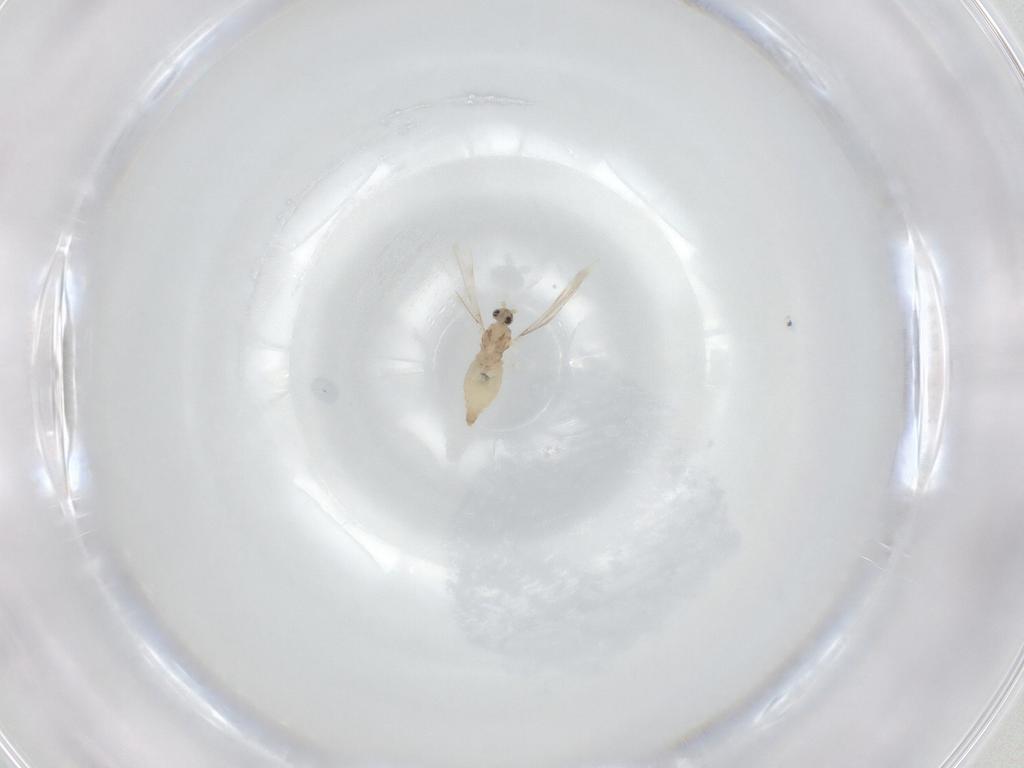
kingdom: Animalia
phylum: Arthropoda
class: Insecta
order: Diptera
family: Cecidomyiidae
